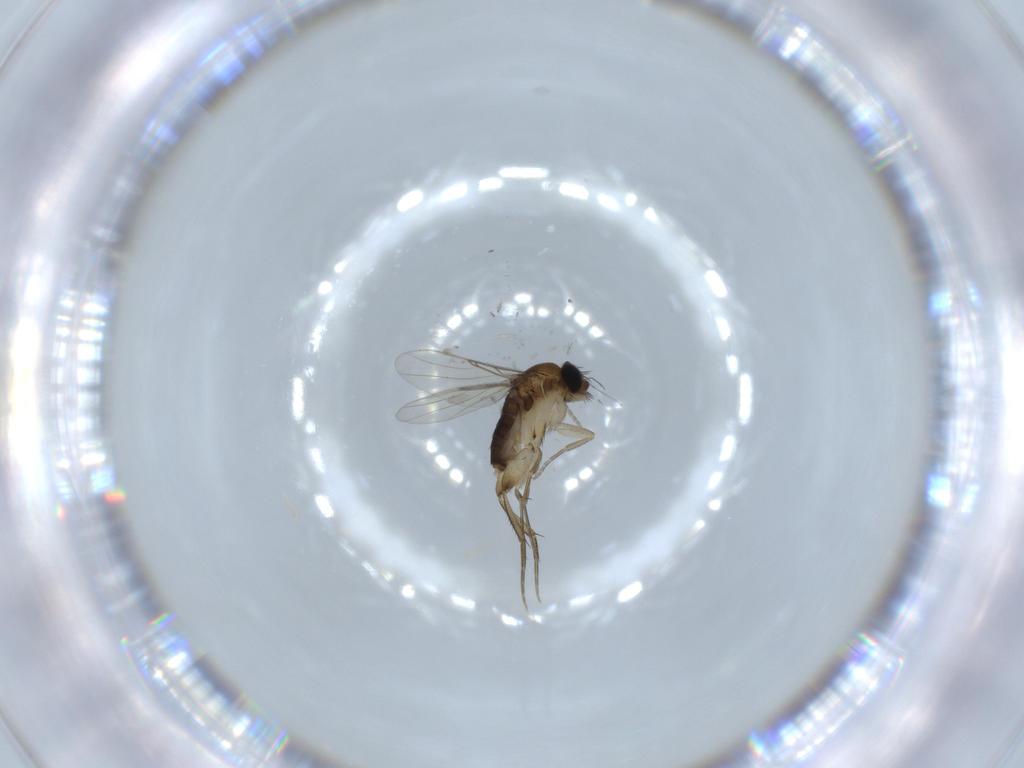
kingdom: Animalia
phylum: Arthropoda
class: Insecta
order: Diptera
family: Phoridae
